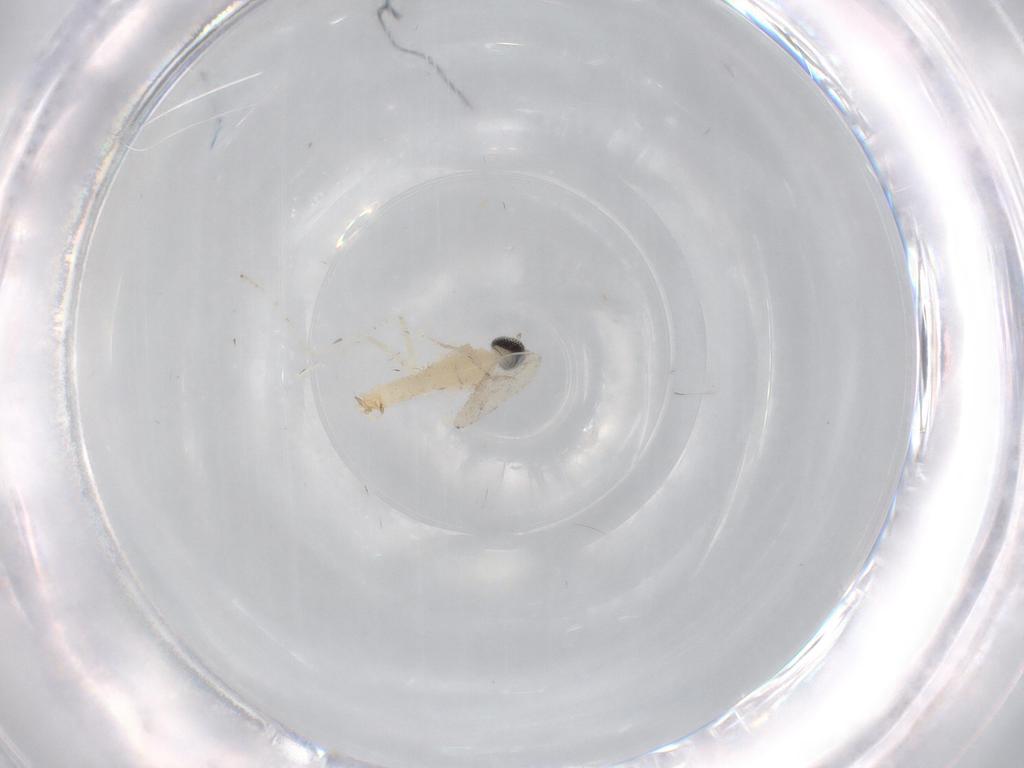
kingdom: Animalia
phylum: Arthropoda
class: Insecta
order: Diptera
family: Cecidomyiidae
